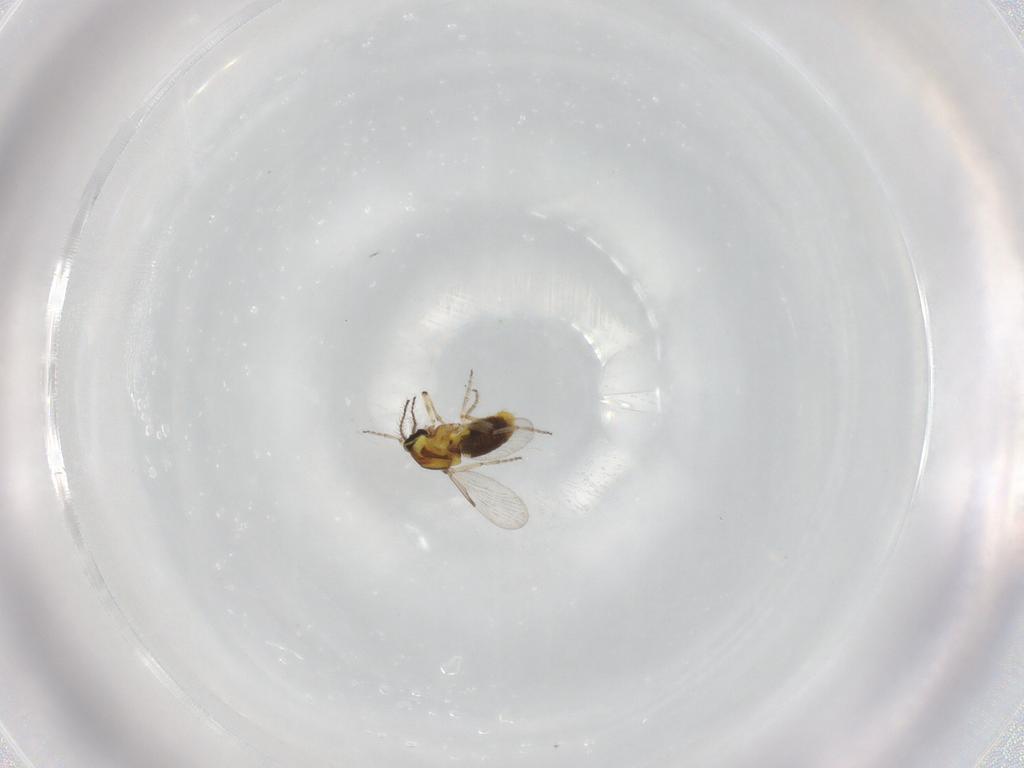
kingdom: Animalia
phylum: Arthropoda
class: Insecta
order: Diptera
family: Ceratopogonidae
